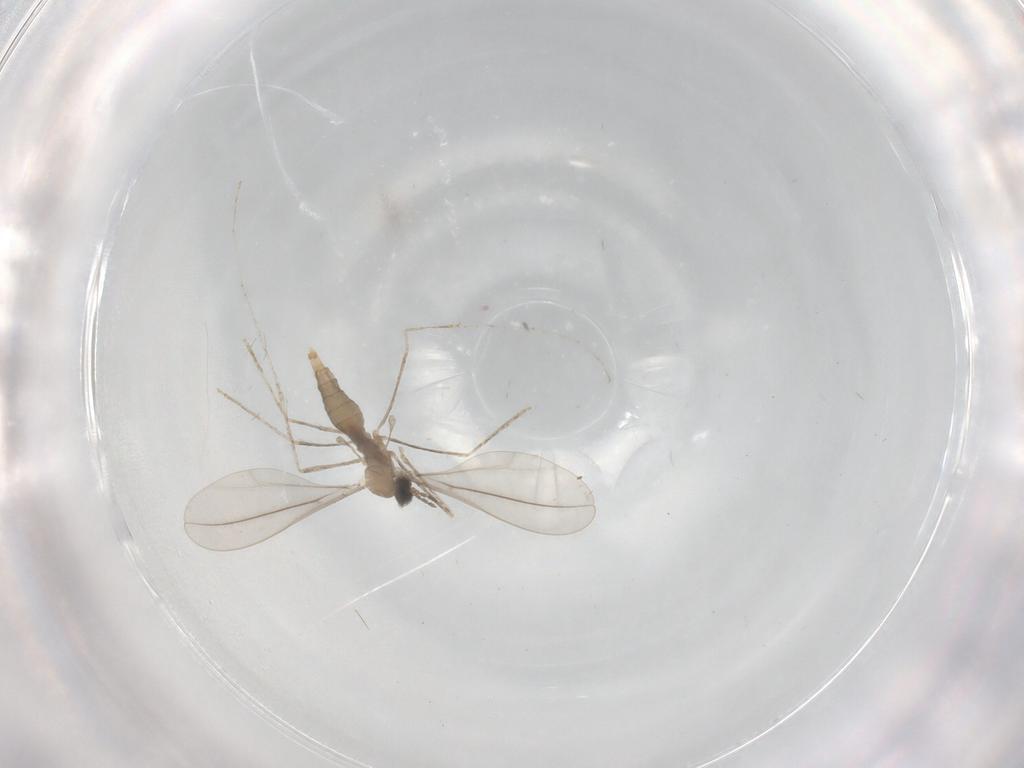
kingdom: Animalia
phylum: Arthropoda
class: Insecta
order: Diptera
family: Cecidomyiidae
